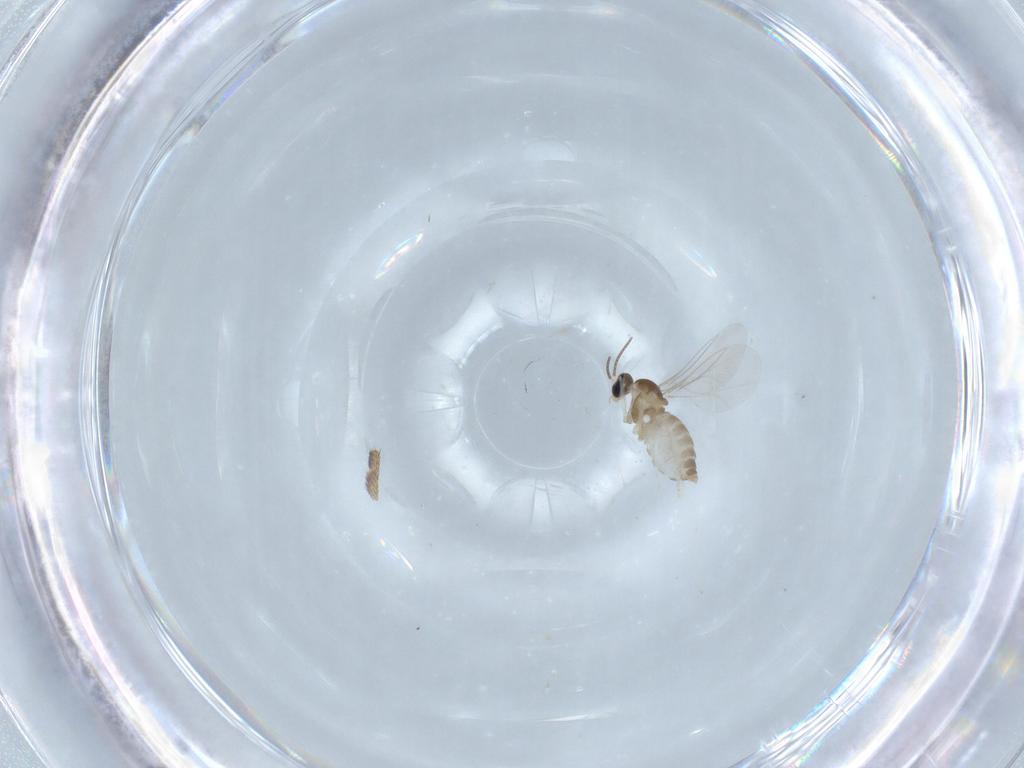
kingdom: Animalia
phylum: Arthropoda
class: Insecta
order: Diptera
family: Cecidomyiidae
